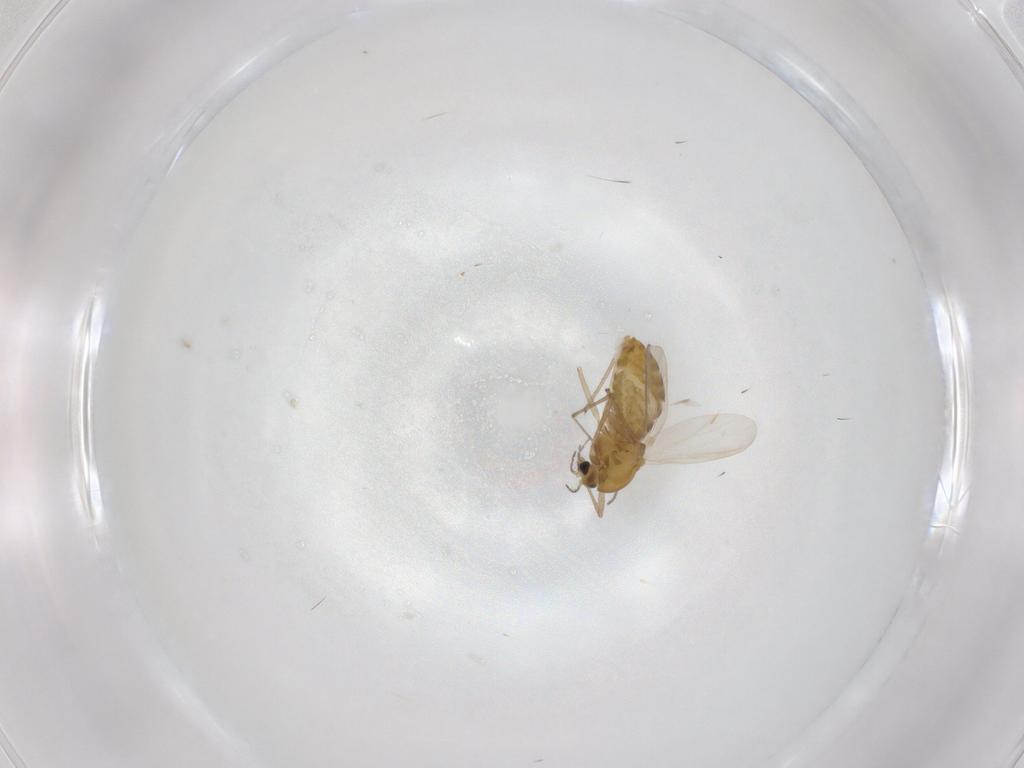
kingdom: Animalia
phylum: Arthropoda
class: Insecta
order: Diptera
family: Chironomidae
